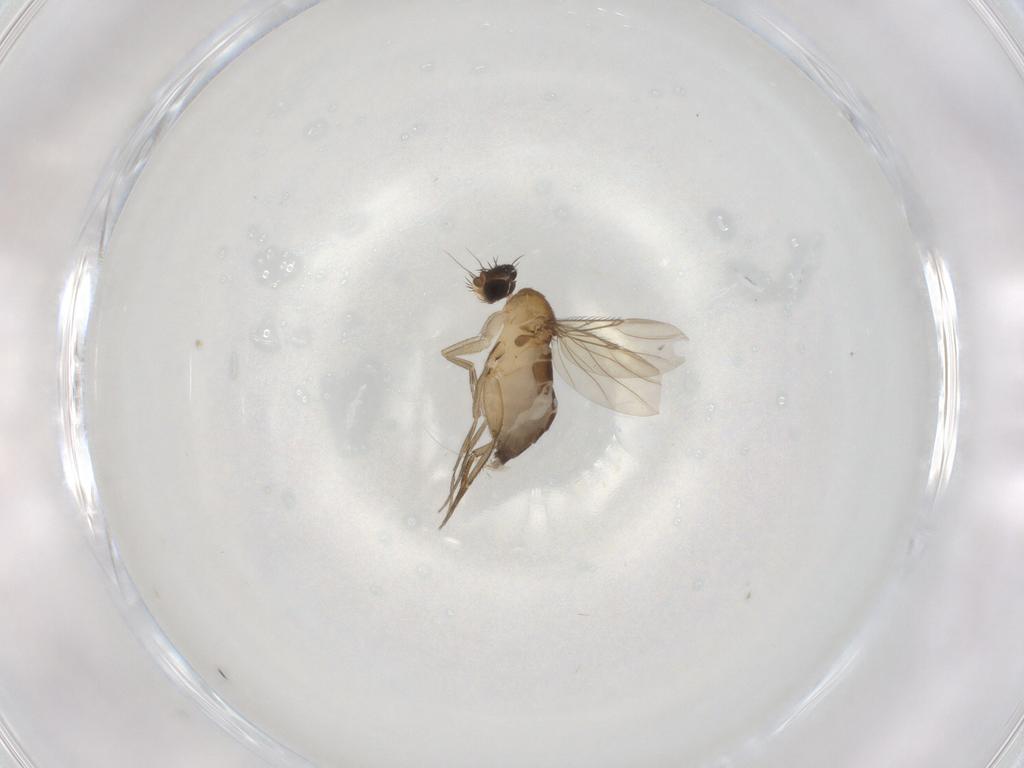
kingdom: Animalia
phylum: Arthropoda
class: Insecta
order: Diptera
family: Phoridae
